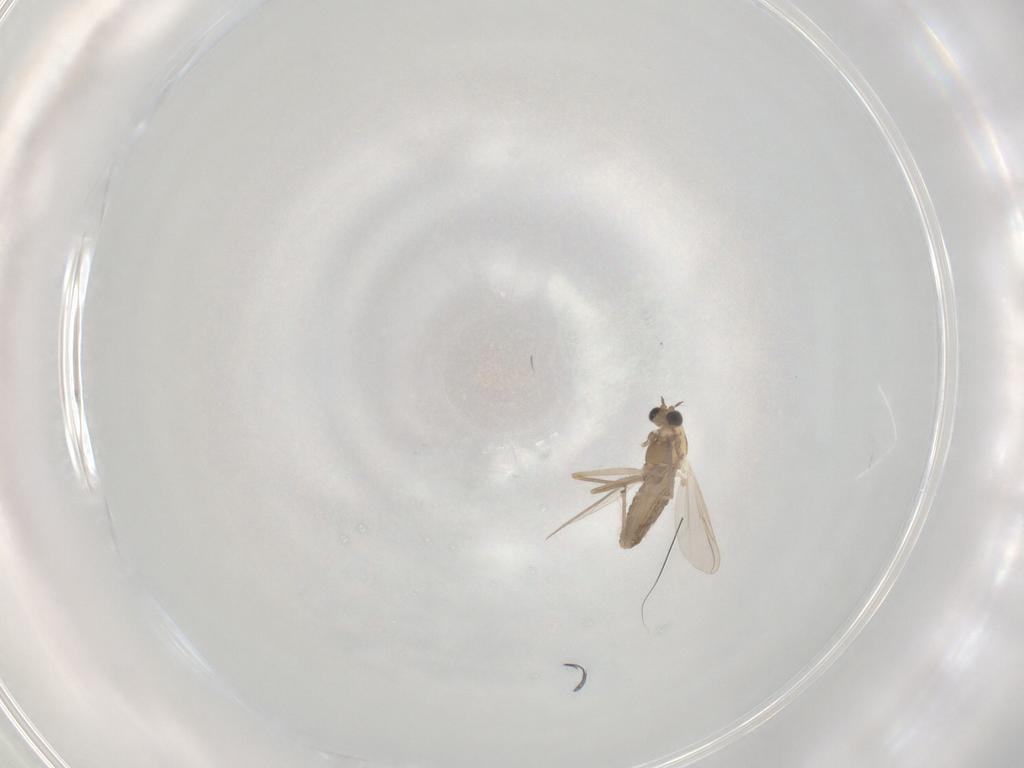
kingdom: Animalia
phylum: Arthropoda
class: Insecta
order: Diptera
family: Chironomidae
